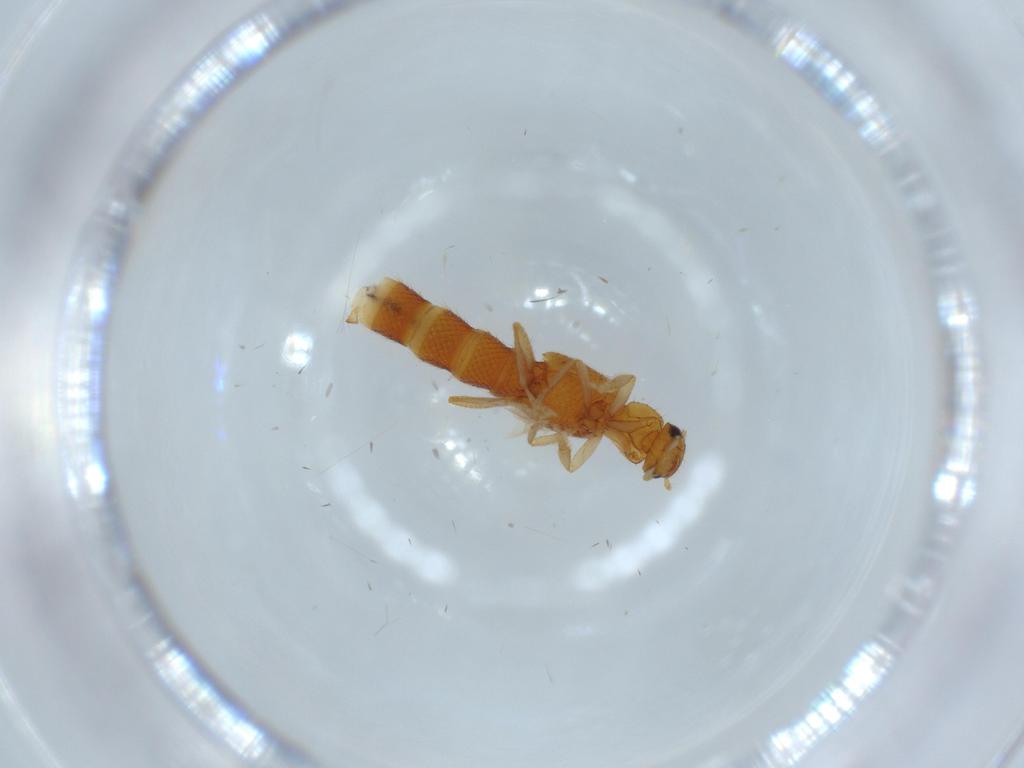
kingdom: Animalia
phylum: Arthropoda
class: Insecta
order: Coleoptera
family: Staphylinidae
